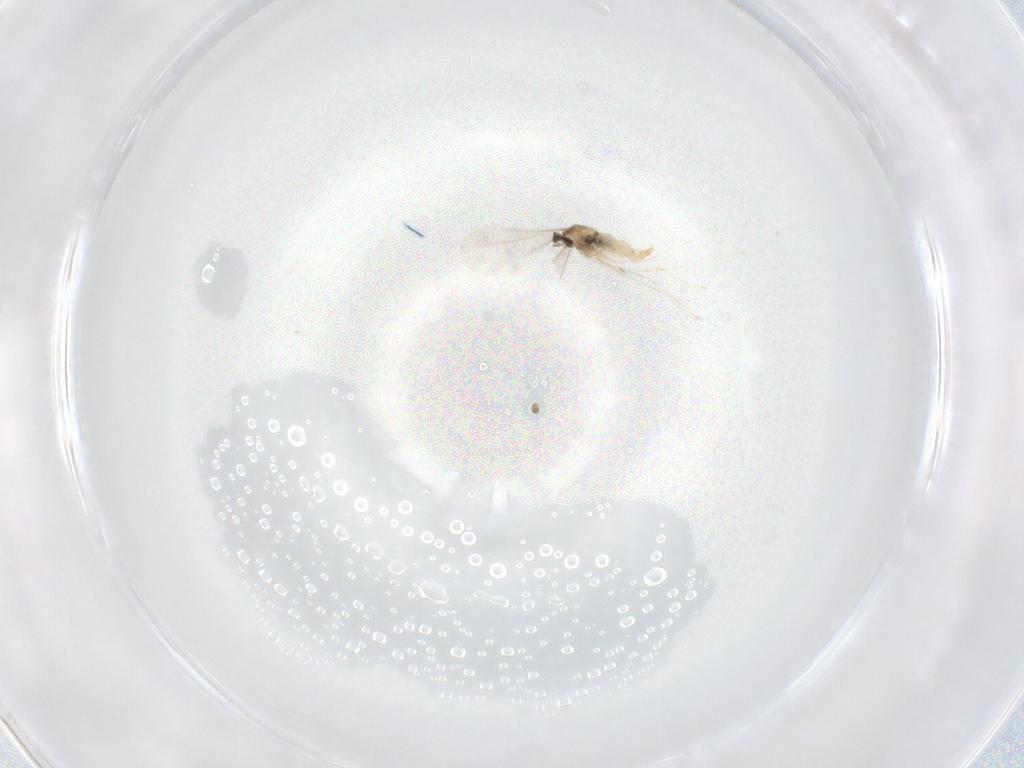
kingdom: Animalia
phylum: Arthropoda
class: Insecta
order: Diptera
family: Cecidomyiidae
